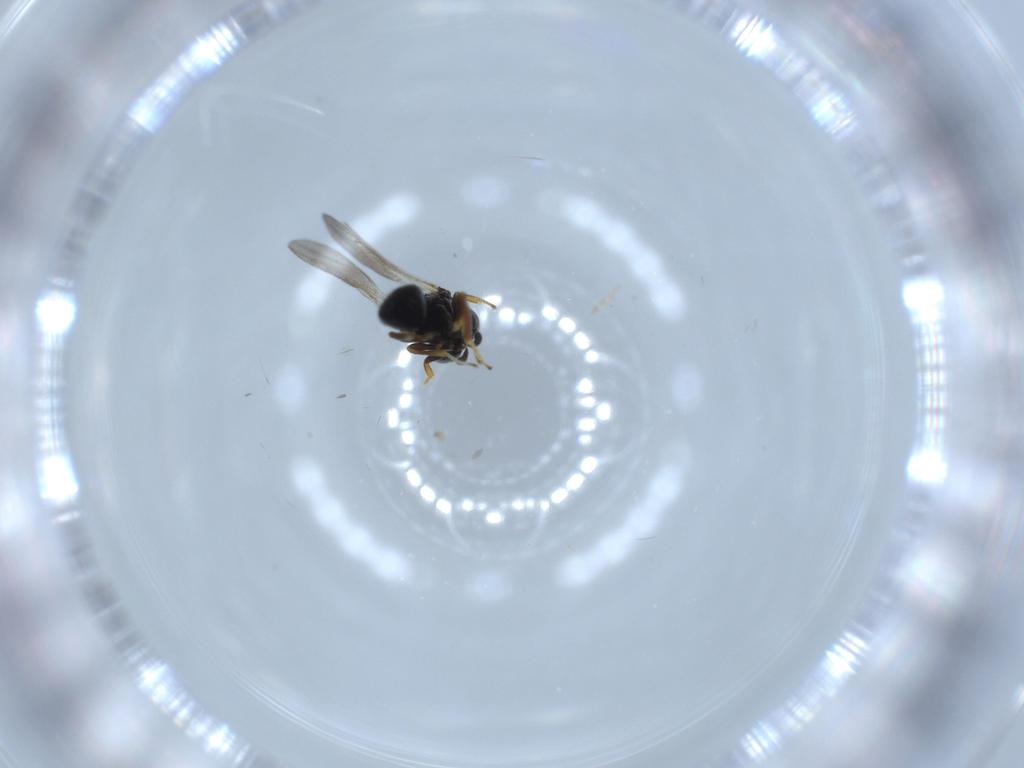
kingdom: Animalia
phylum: Arthropoda
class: Insecta
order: Hymenoptera
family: Pteromalidae
